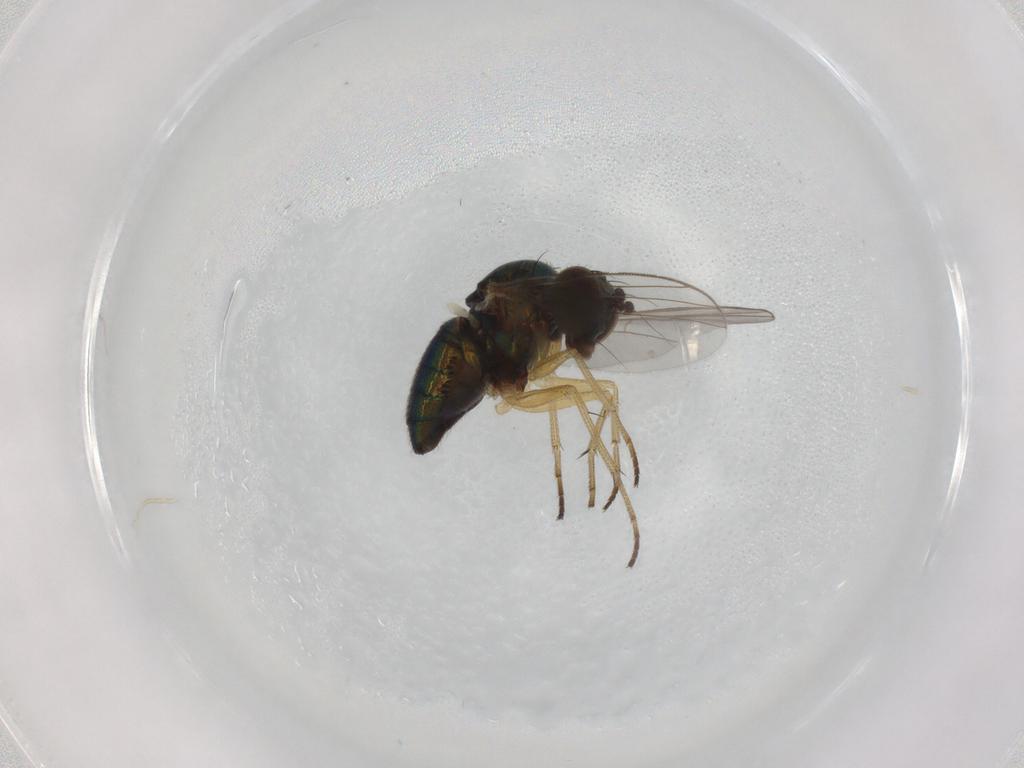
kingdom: Animalia
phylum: Arthropoda
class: Insecta
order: Diptera
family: Dolichopodidae
